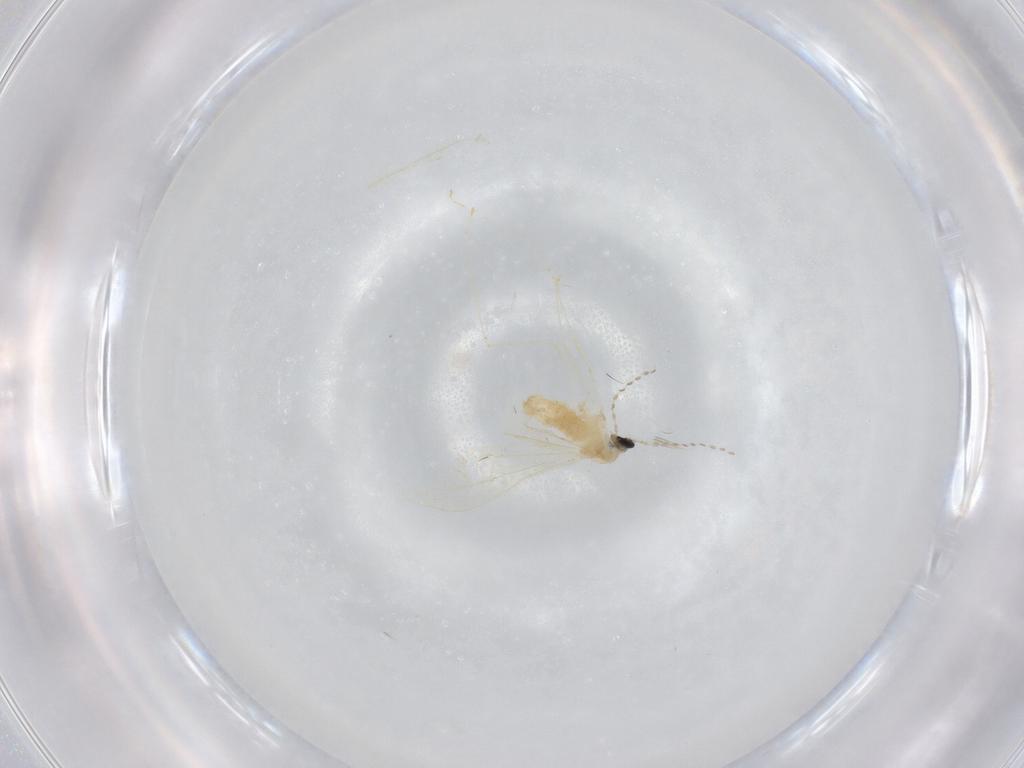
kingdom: Animalia
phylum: Arthropoda
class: Insecta
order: Diptera
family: Cecidomyiidae
